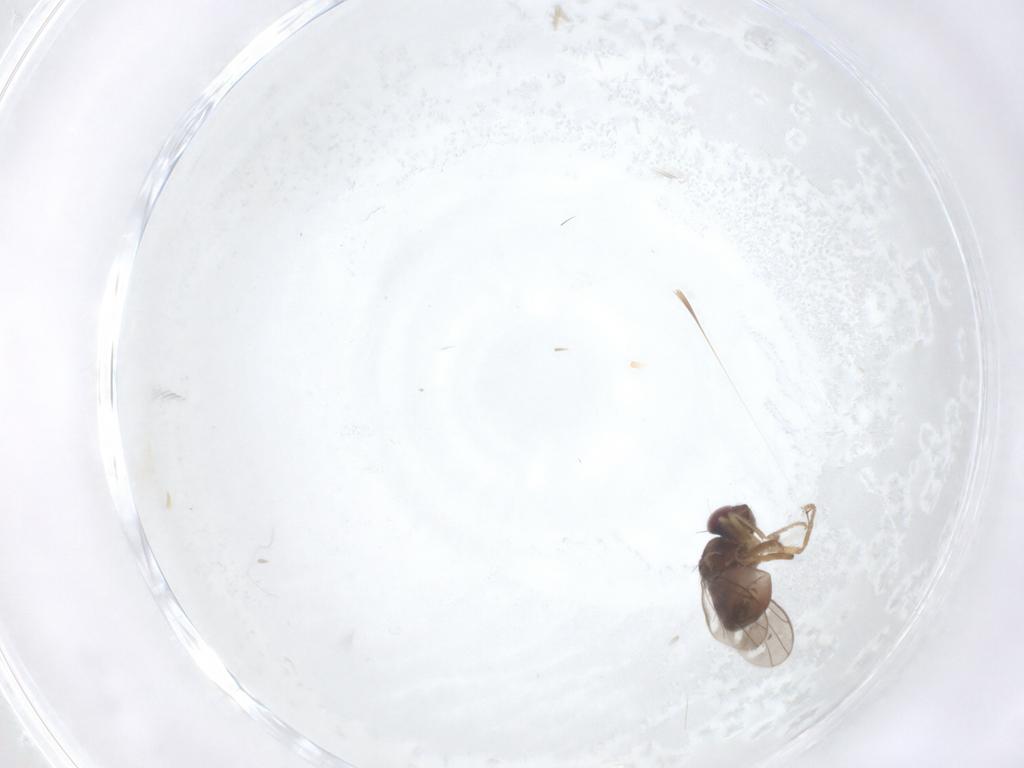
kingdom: Animalia
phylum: Arthropoda
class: Insecta
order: Diptera
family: Ephydridae
